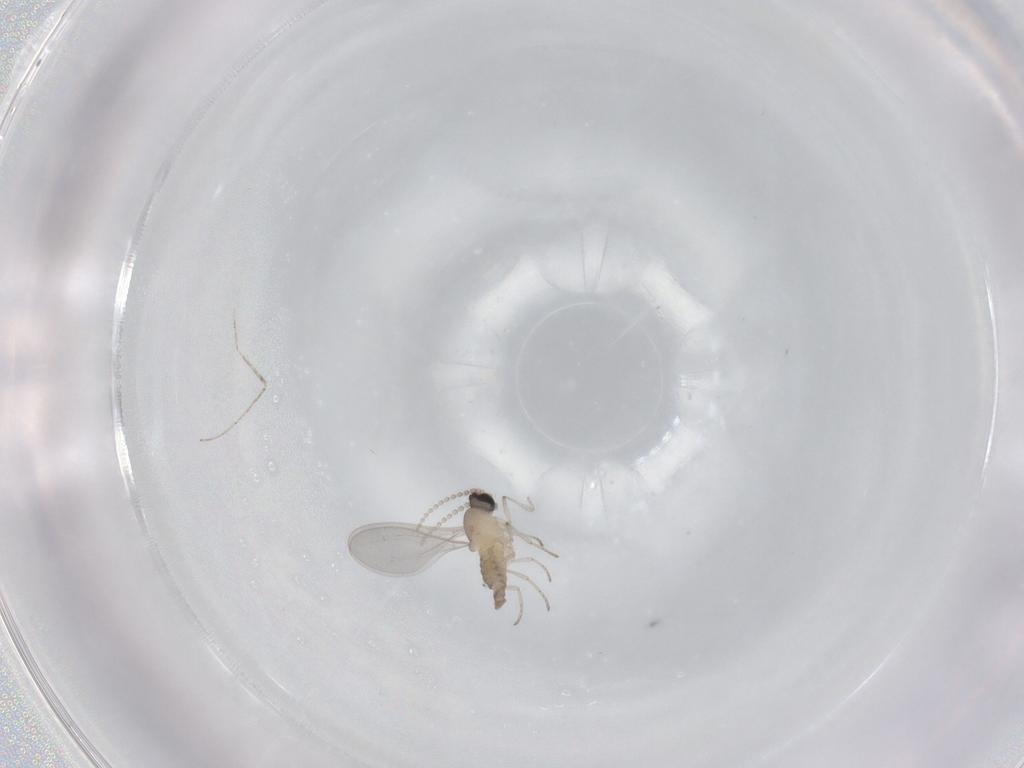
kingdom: Animalia
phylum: Arthropoda
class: Insecta
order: Diptera
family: Cecidomyiidae
